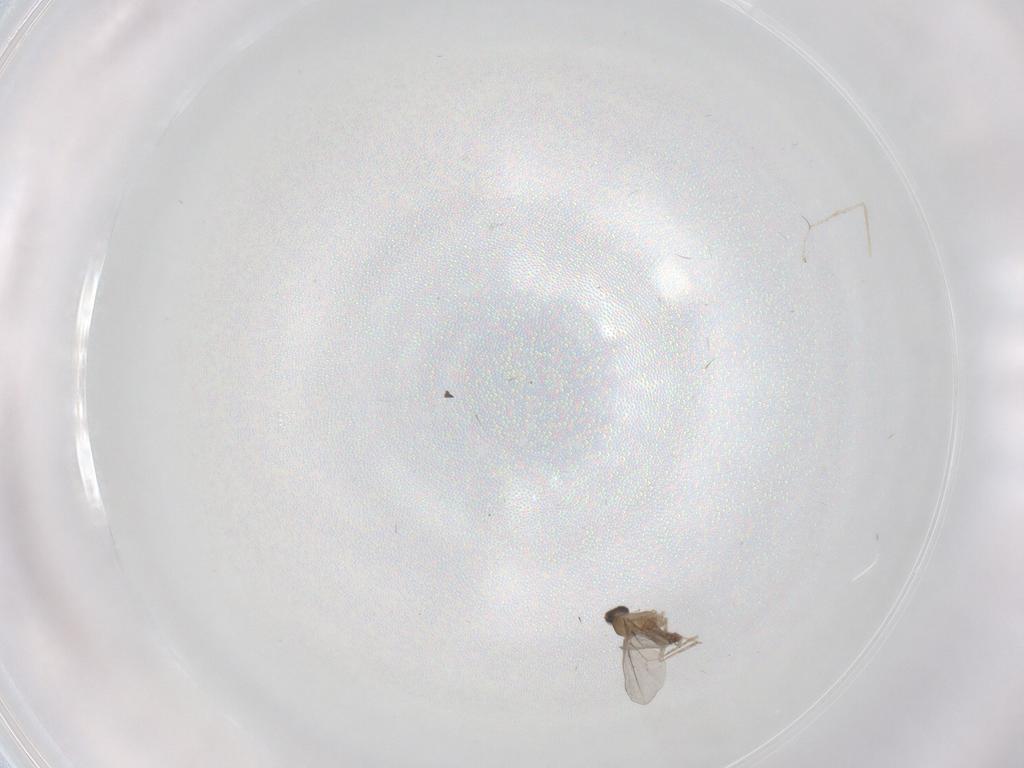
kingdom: Animalia
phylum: Arthropoda
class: Insecta
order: Diptera
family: Cecidomyiidae
